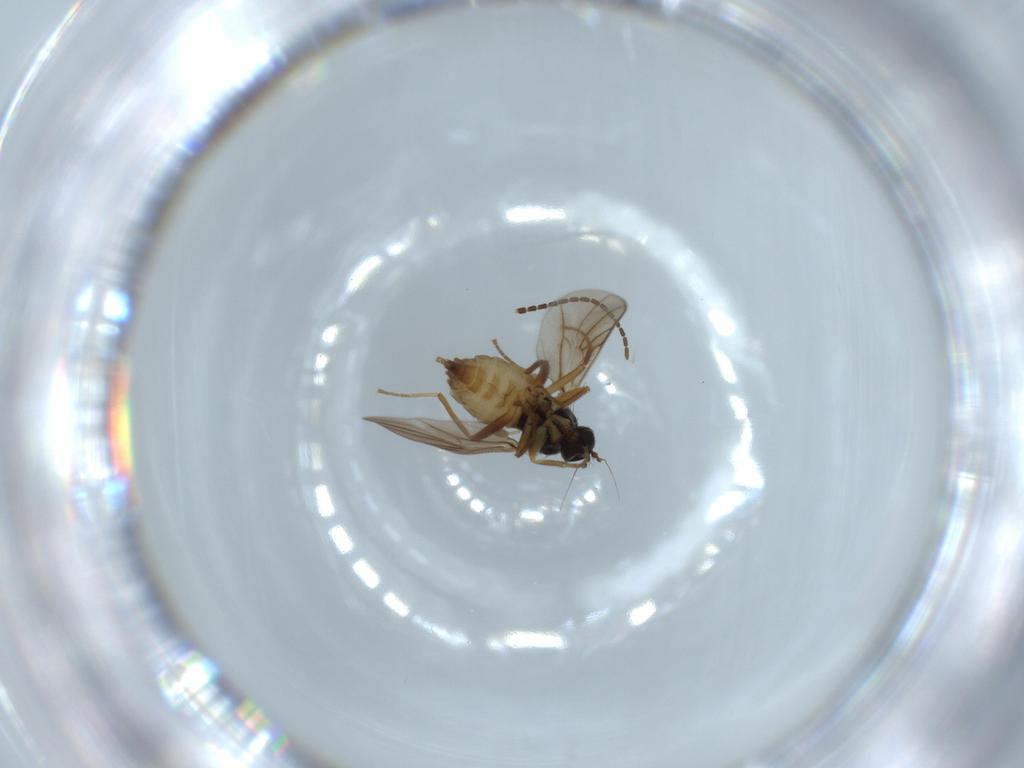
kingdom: Animalia
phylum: Arthropoda
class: Insecta
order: Diptera
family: Hybotidae
